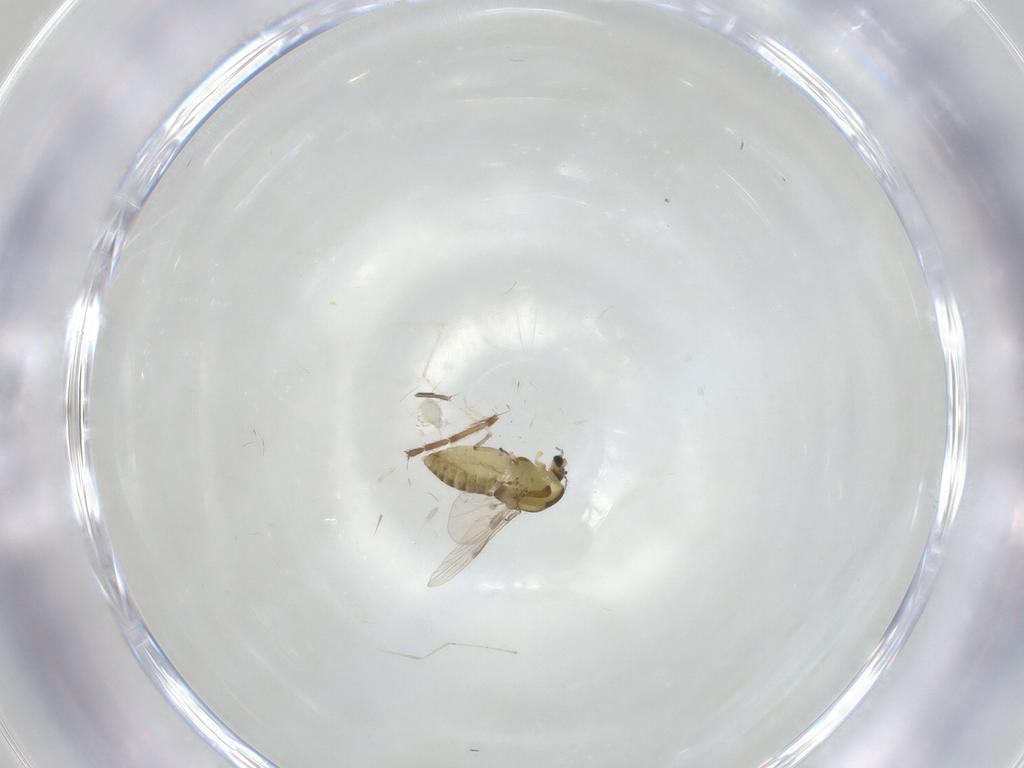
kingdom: Animalia
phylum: Arthropoda
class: Insecta
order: Diptera
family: Chironomidae
